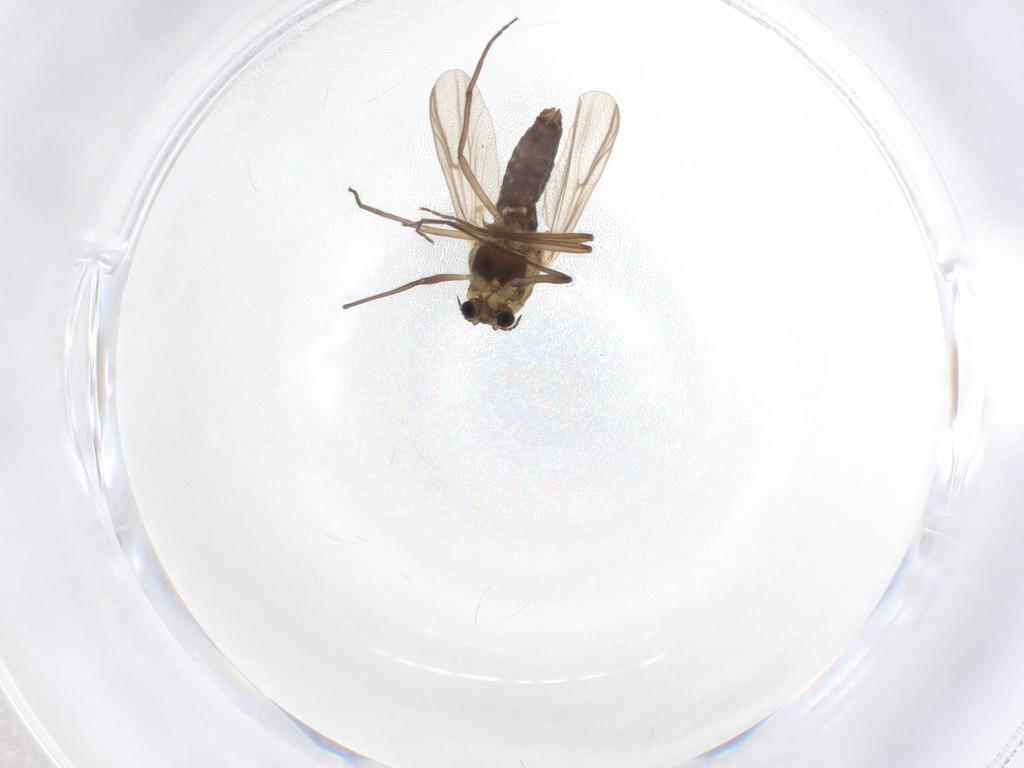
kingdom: Animalia
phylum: Arthropoda
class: Insecta
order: Diptera
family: Chironomidae
